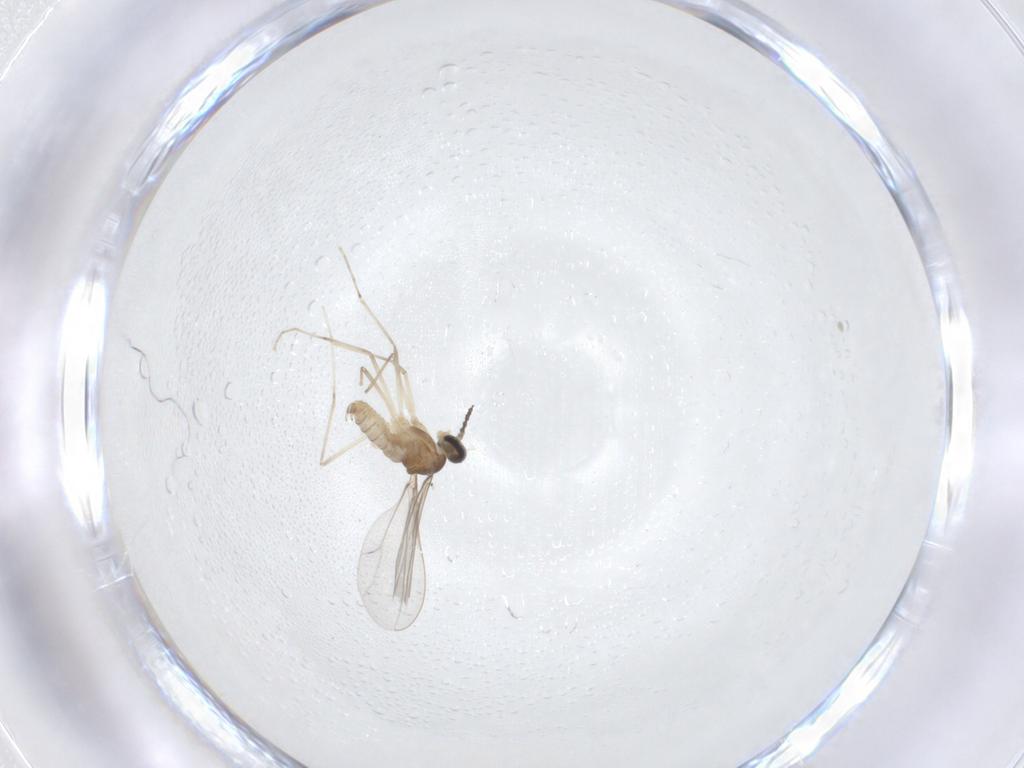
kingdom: Animalia
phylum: Arthropoda
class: Insecta
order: Diptera
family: Cecidomyiidae
